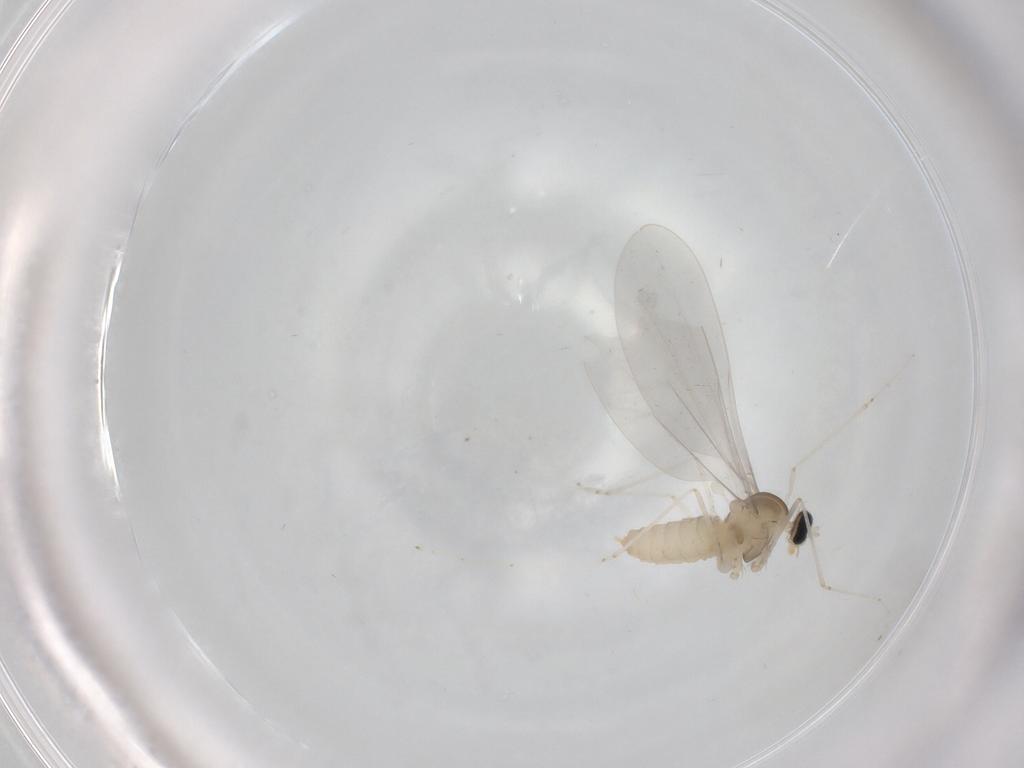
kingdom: Animalia
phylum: Arthropoda
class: Insecta
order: Diptera
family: Cecidomyiidae
